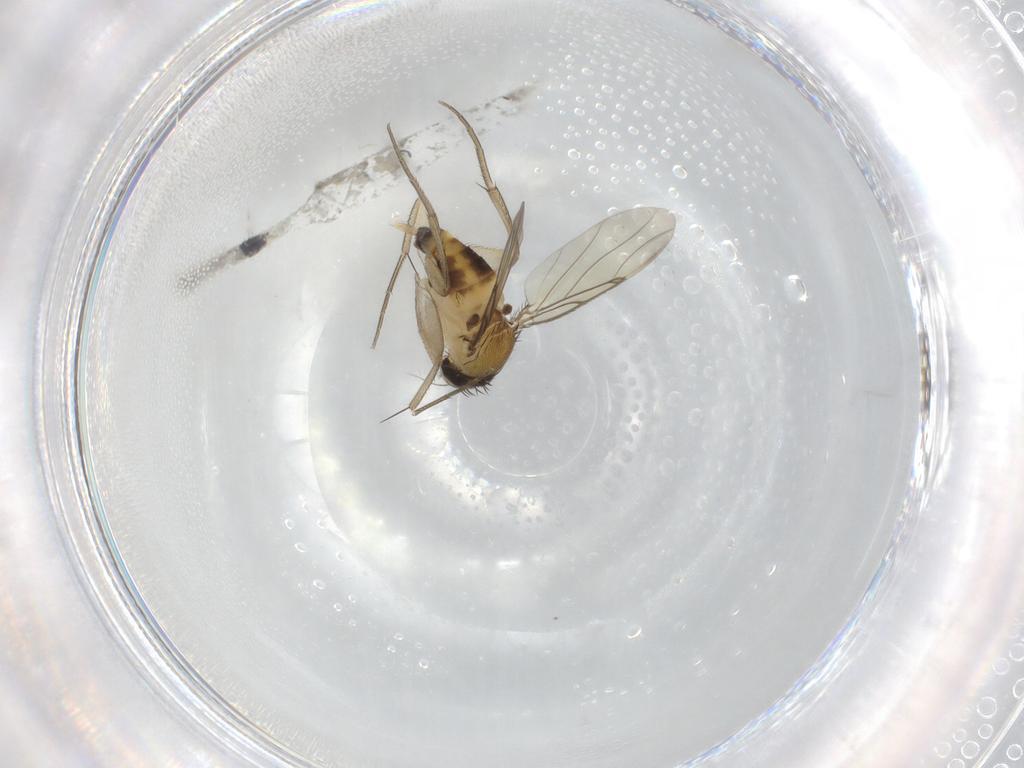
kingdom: Animalia
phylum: Arthropoda
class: Insecta
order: Diptera
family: Phoridae
